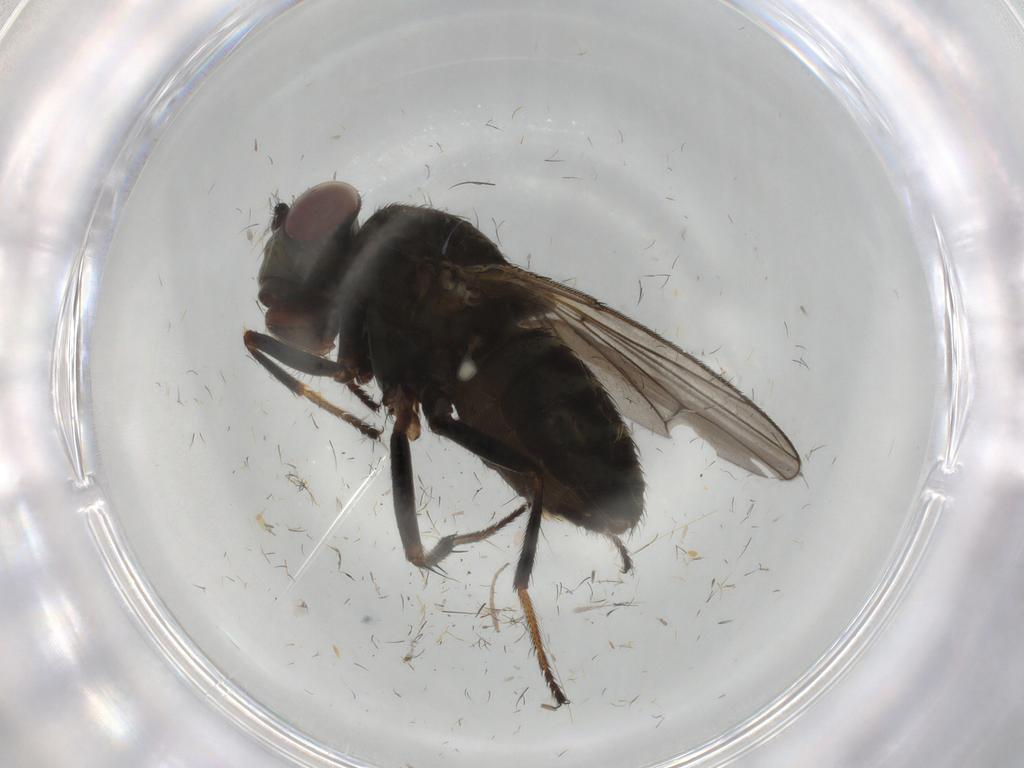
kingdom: Animalia
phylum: Arthropoda
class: Insecta
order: Diptera
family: Ephydridae
